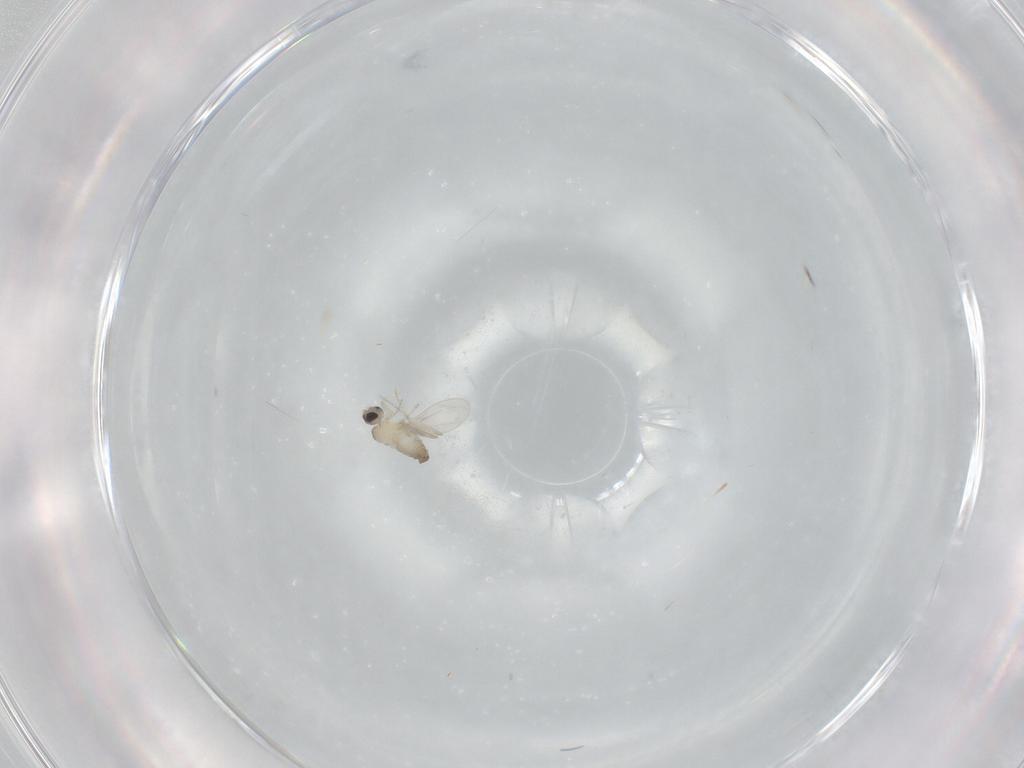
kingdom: Animalia
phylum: Arthropoda
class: Insecta
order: Diptera
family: Cecidomyiidae
